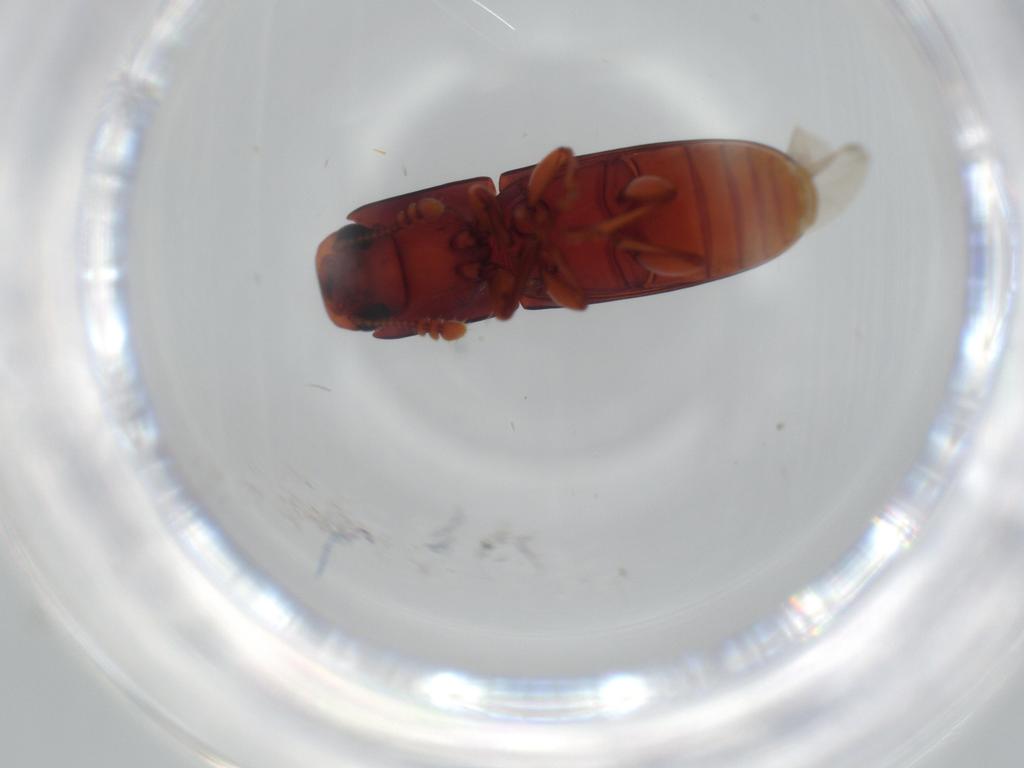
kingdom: Animalia
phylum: Arthropoda
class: Insecta
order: Coleoptera
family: Zopheridae
